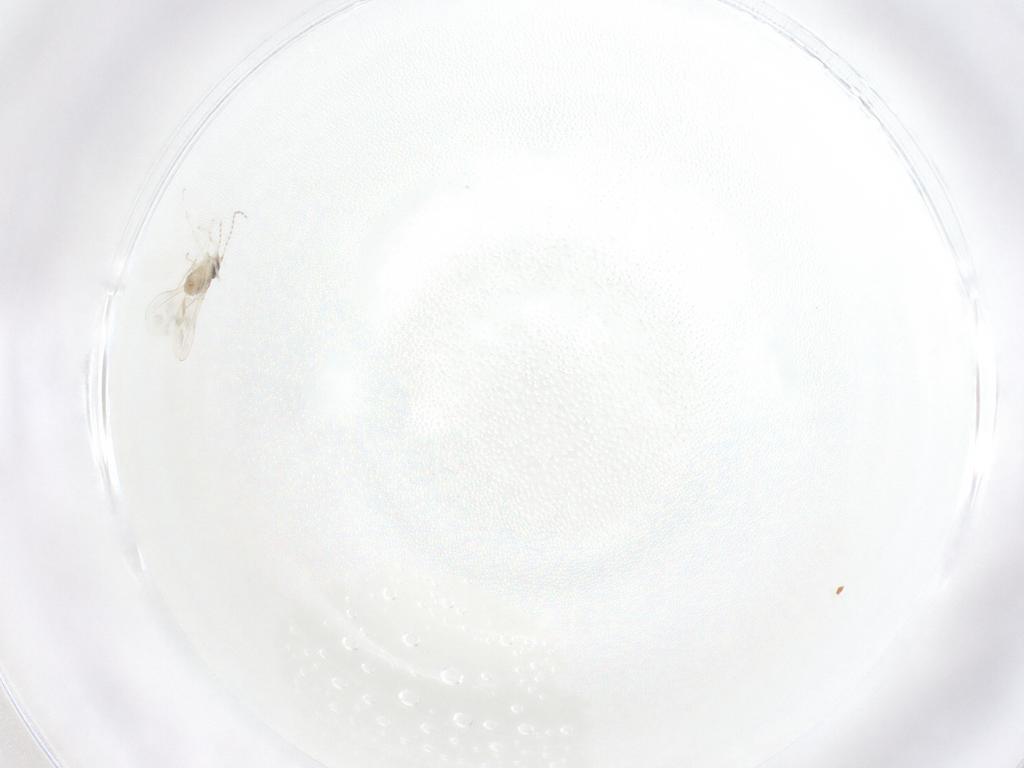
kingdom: Animalia
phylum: Arthropoda
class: Insecta
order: Diptera
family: Cecidomyiidae
